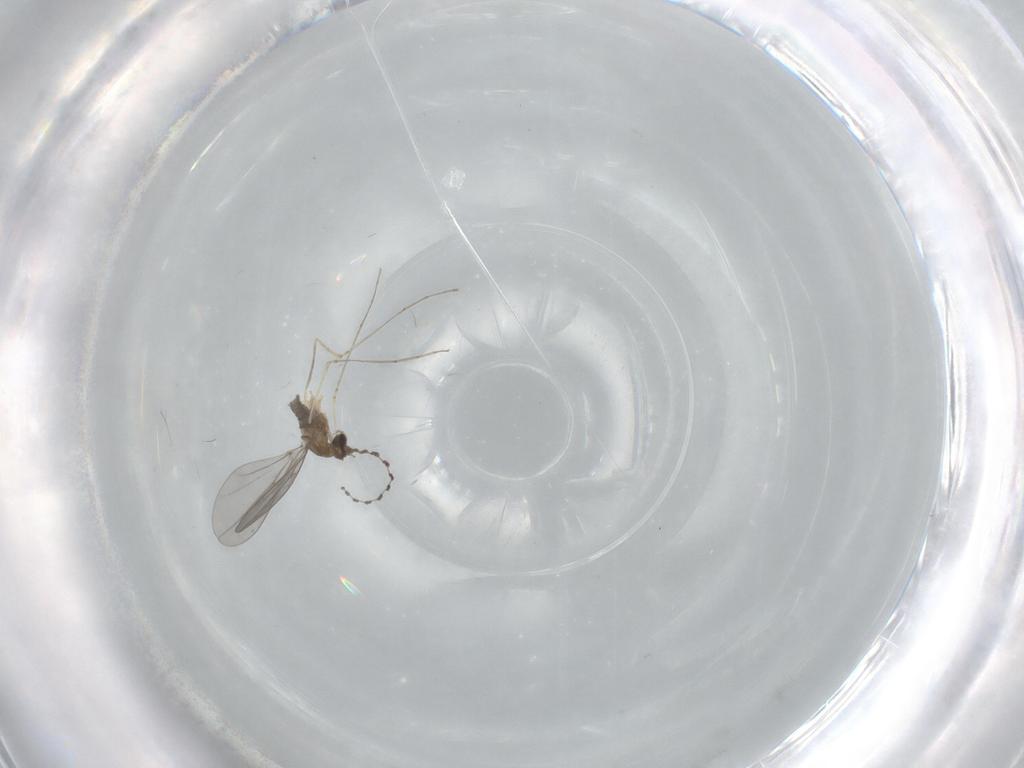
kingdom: Animalia
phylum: Arthropoda
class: Insecta
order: Diptera
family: Cecidomyiidae
